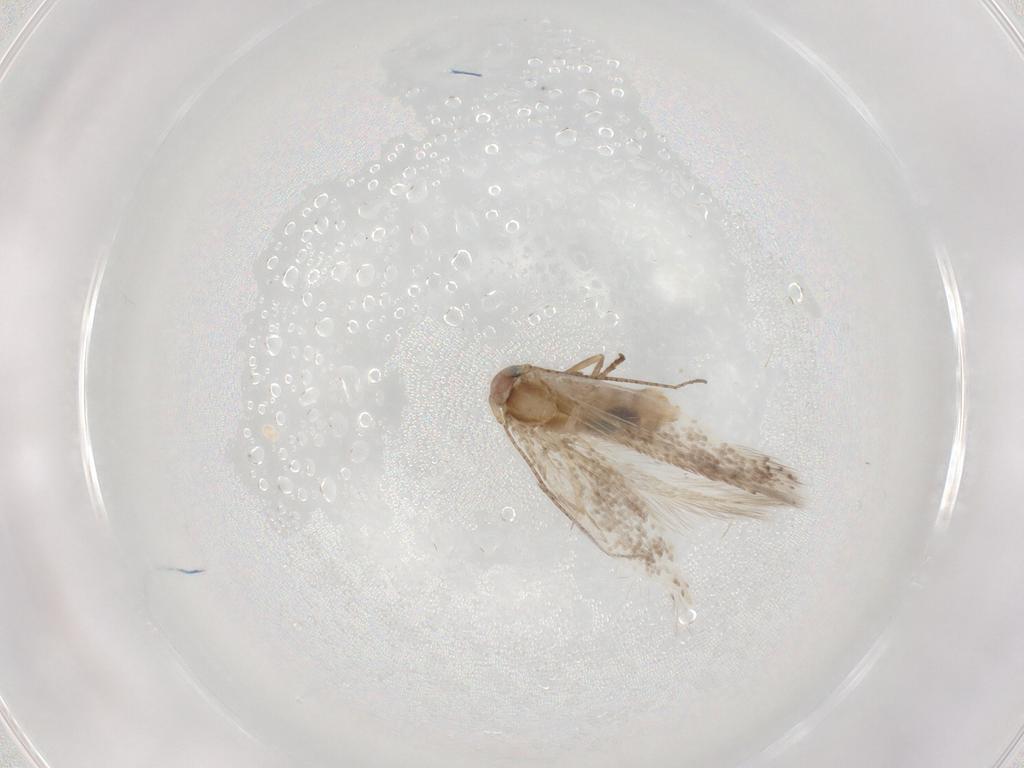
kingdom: Animalia
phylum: Arthropoda
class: Insecta
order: Lepidoptera
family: Bucculatricidae
